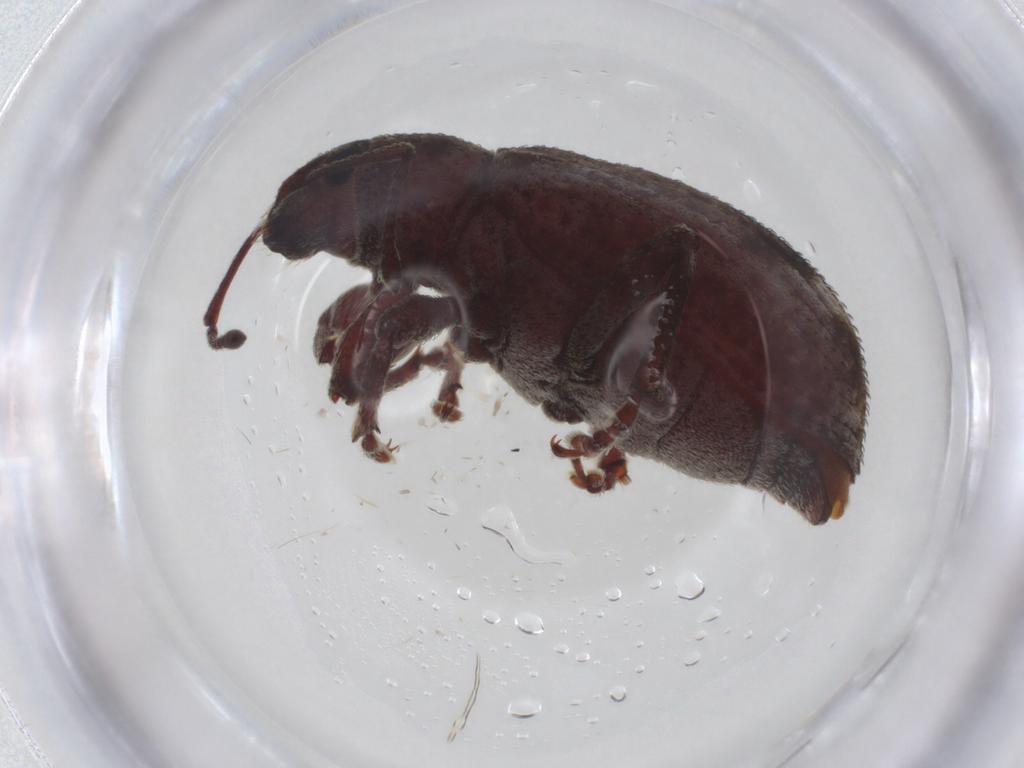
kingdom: Animalia
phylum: Arthropoda
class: Insecta
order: Coleoptera
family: Curculionidae
